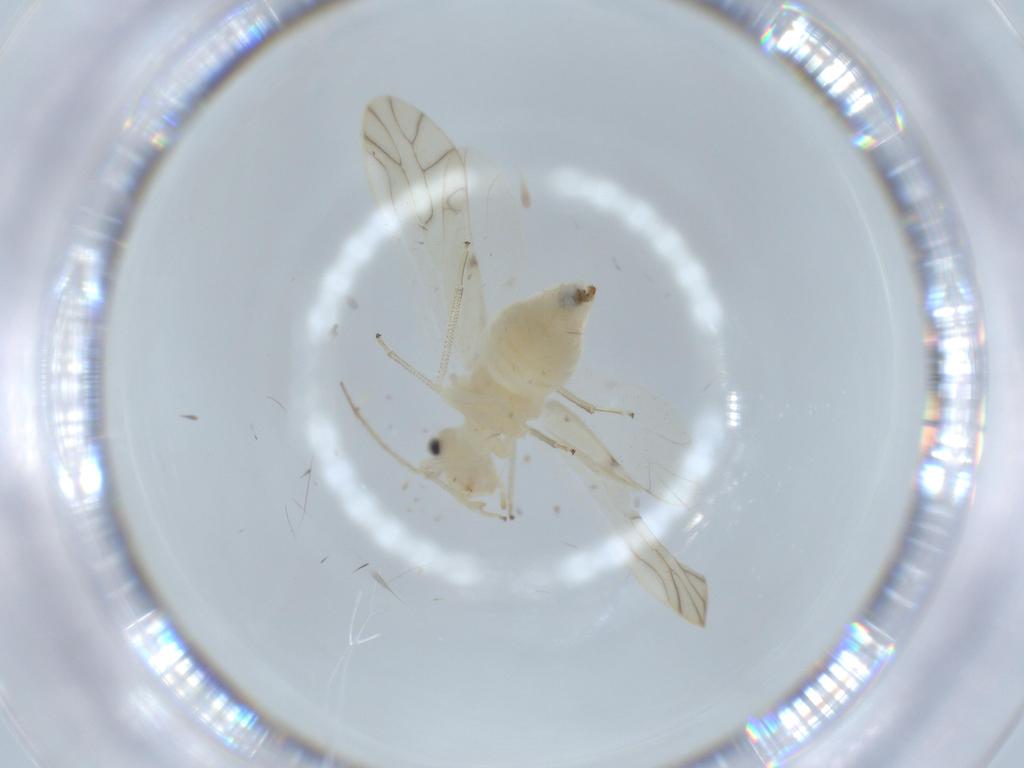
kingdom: Animalia
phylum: Arthropoda
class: Insecta
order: Psocodea
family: Caeciliusidae
